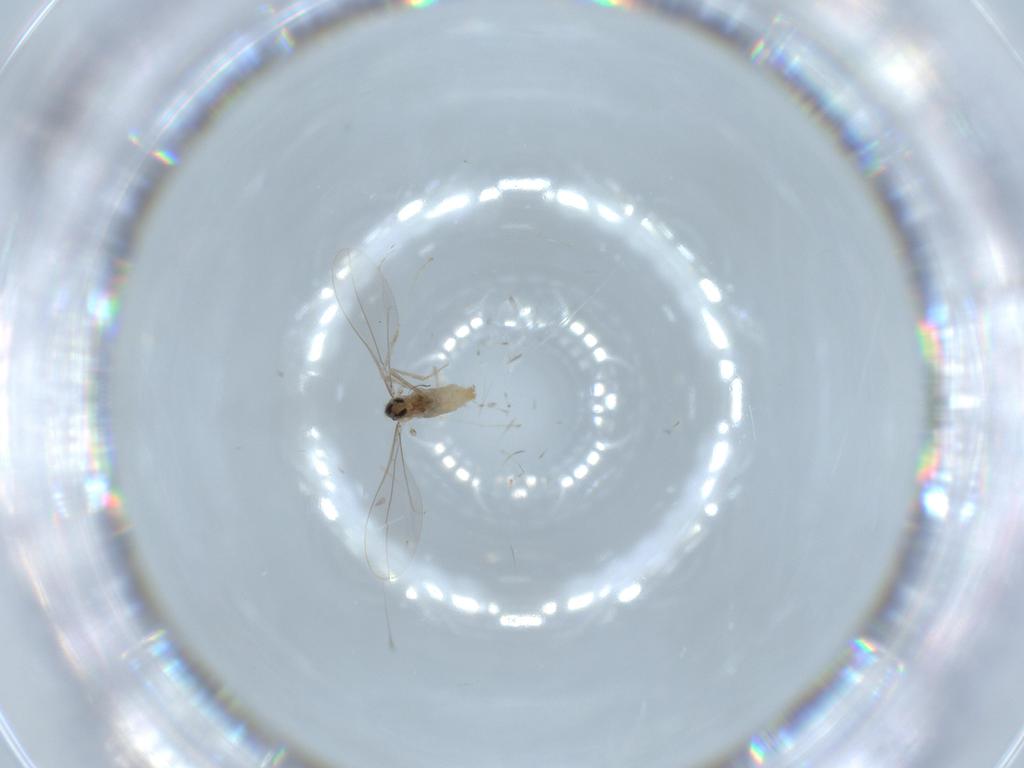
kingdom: Animalia
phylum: Arthropoda
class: Insecta
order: Diptera
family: Cecidomyiidae
